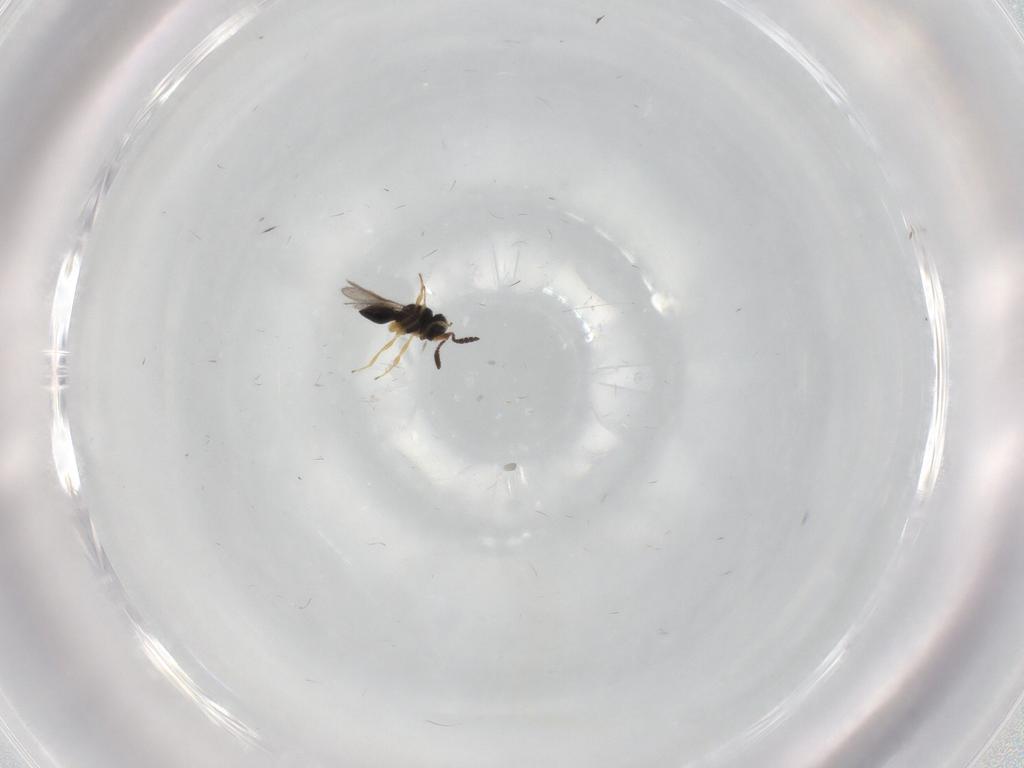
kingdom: Animalia
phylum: Arthropoda
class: Insecta
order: Hymenoptera
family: Scelionidae
